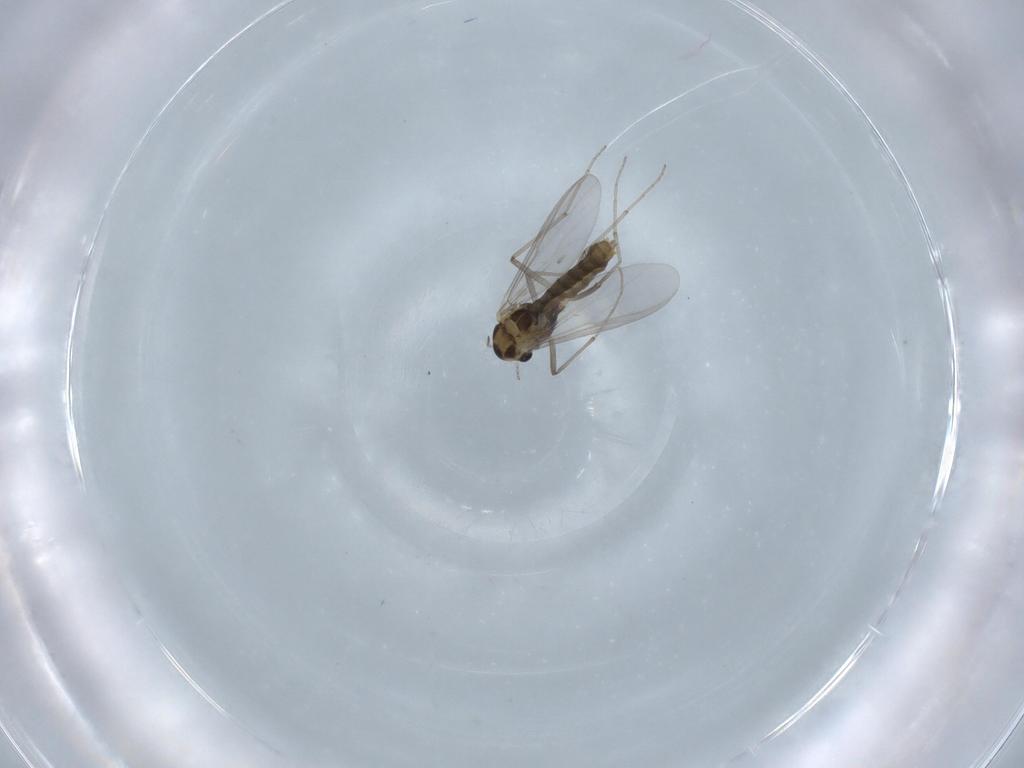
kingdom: Animalia
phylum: Arthropoda
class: Insecta
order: Diptera
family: Chironomidae
